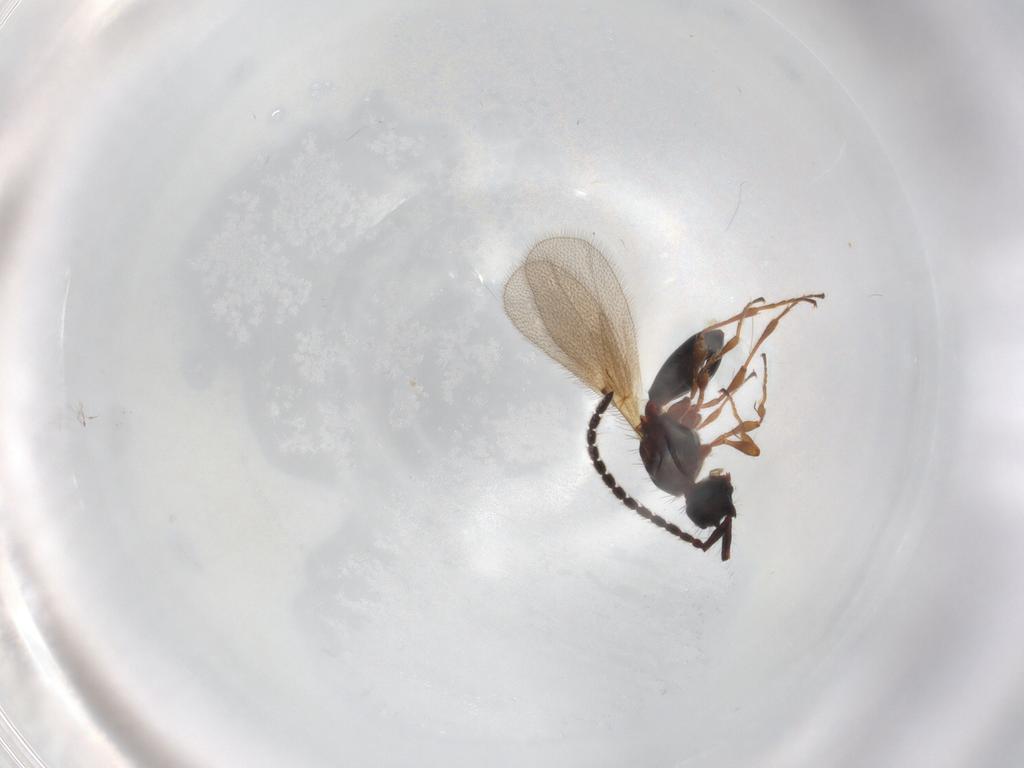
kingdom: Animalia
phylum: Arthropoda
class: Insecta
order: Hymenoptera
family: Diapriidae
